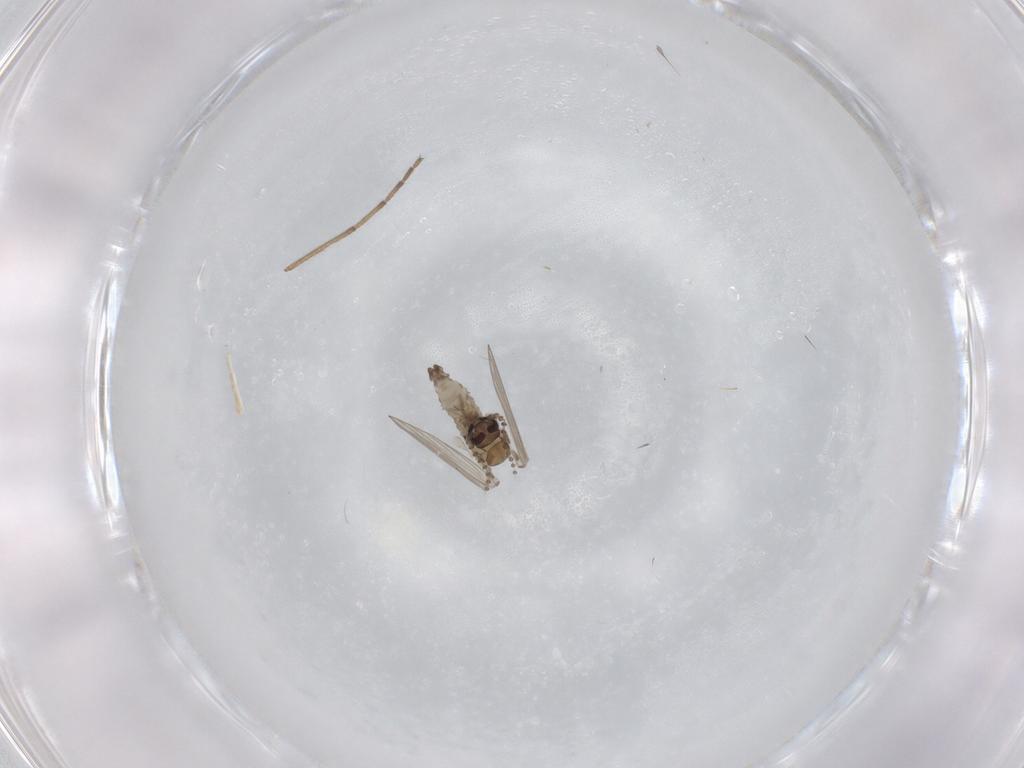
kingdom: Animalia
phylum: Arthropoda
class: Insecta
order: Diptera
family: Psychodidae
